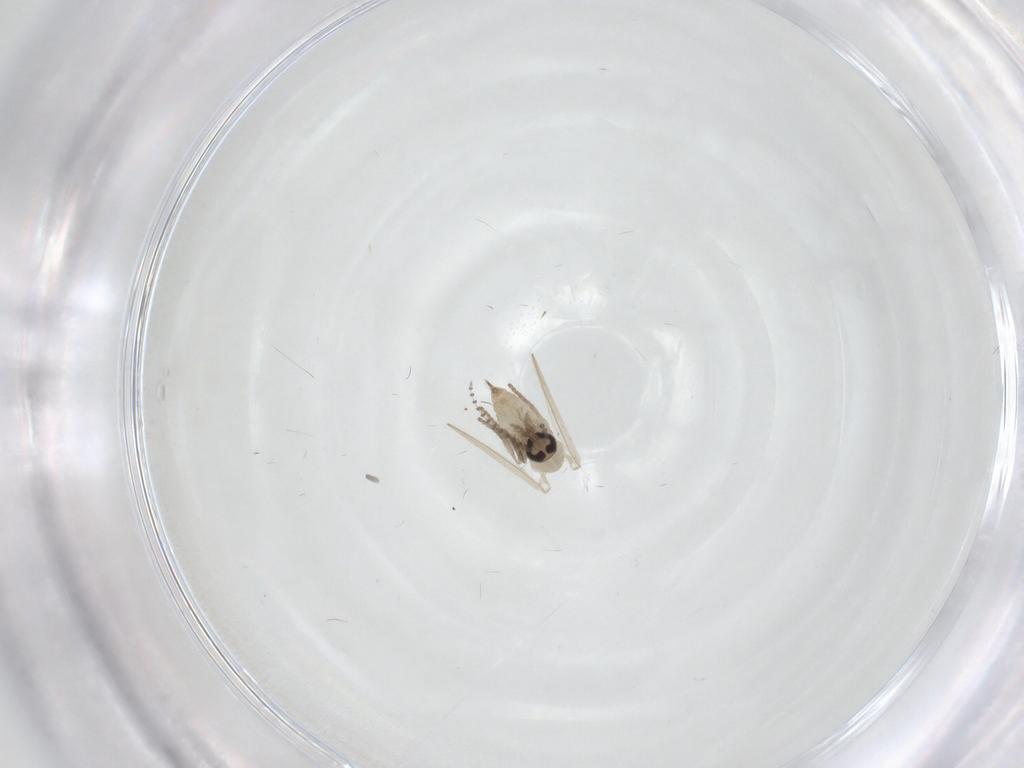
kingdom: Animalia
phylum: Arthropoda
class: Insecta
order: Diptera
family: Psychodidae
